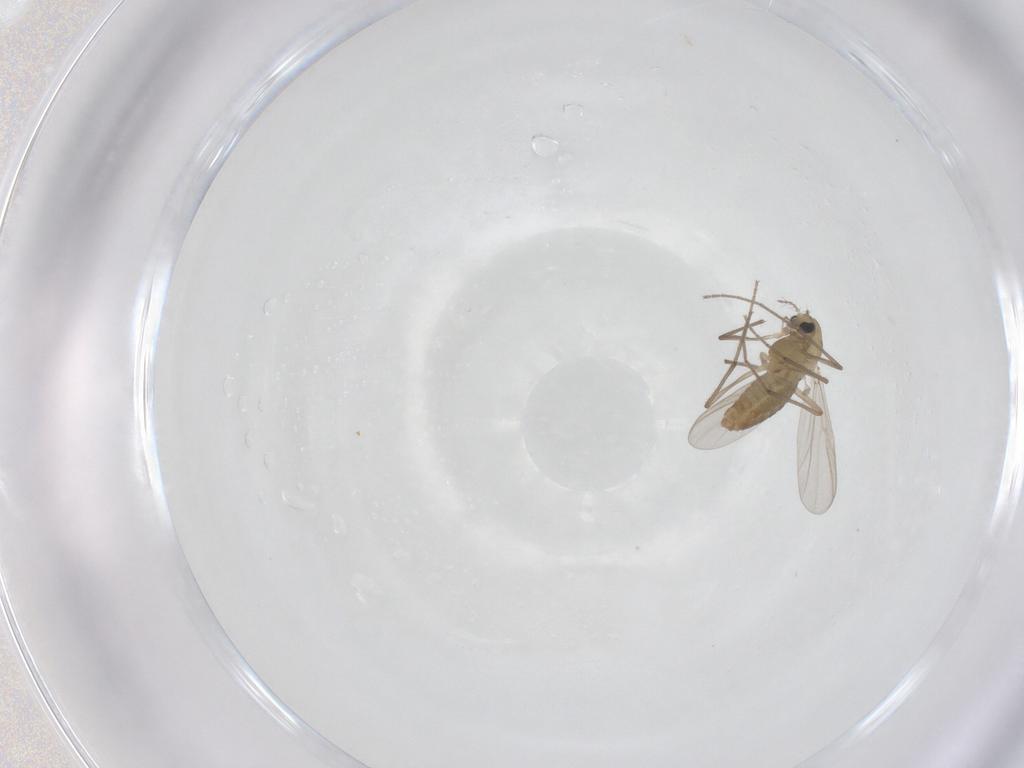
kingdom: Animalia
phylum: Arthropoda
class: Insecta
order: Diptera
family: Chironomidae
